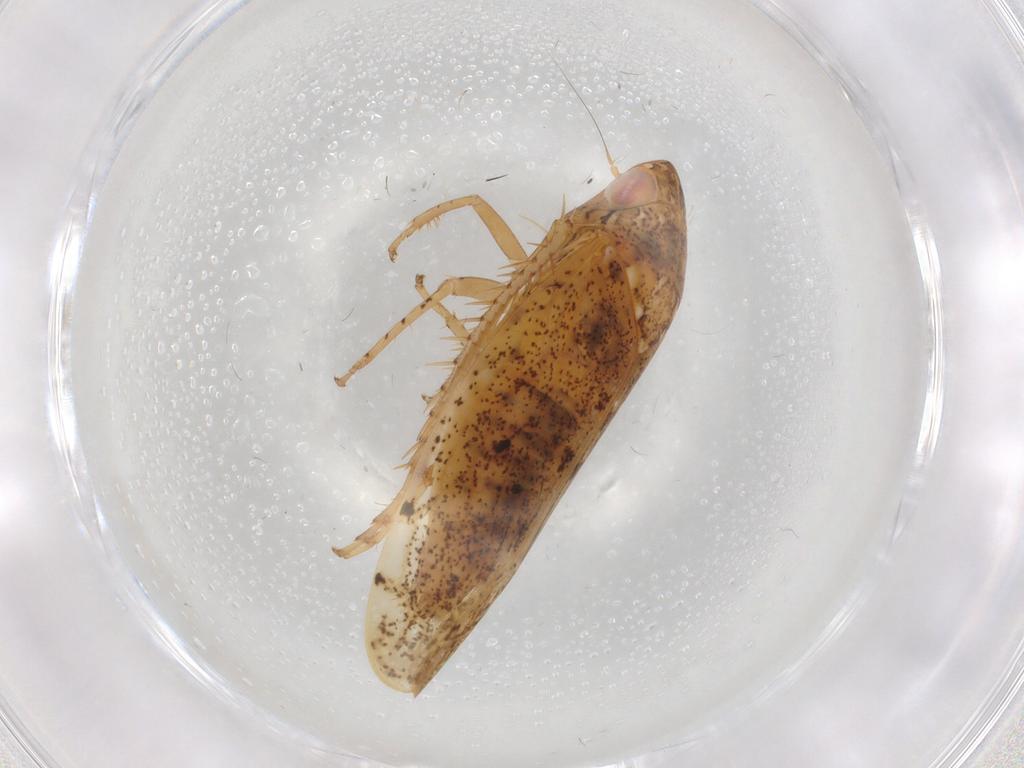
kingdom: Animalia
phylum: Arthropoda
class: Insecta
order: Hemiptera
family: Cicadellidae
